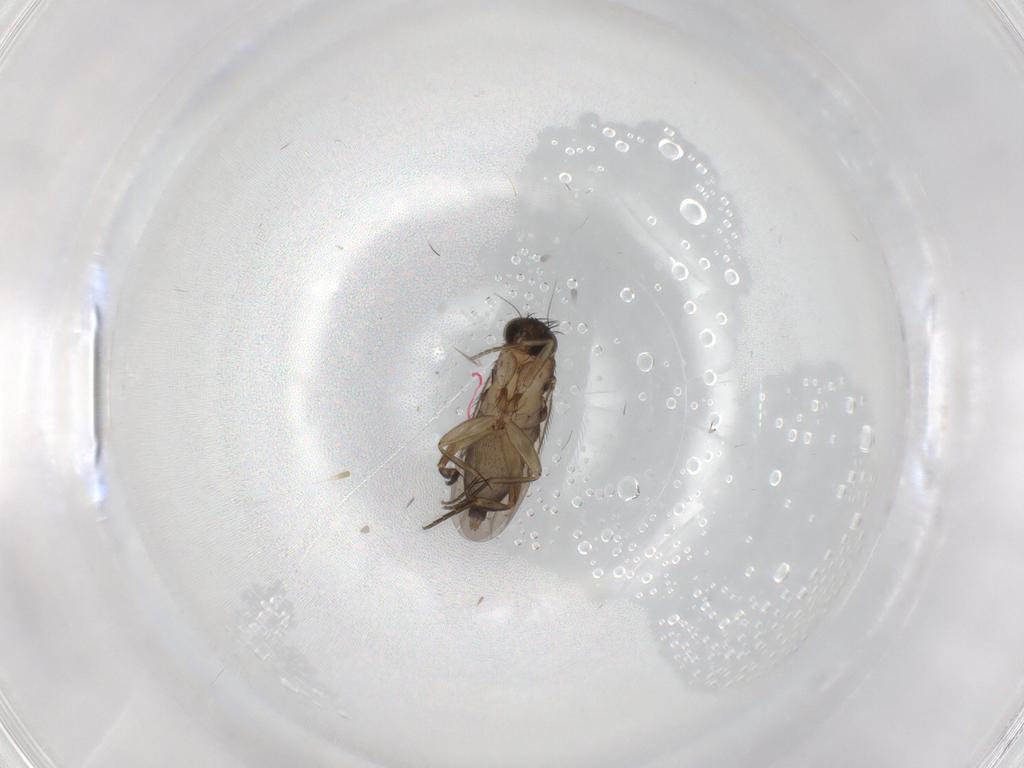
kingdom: Animalia
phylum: Arthropoda
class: Insecta
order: Diptera
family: Phoridae
